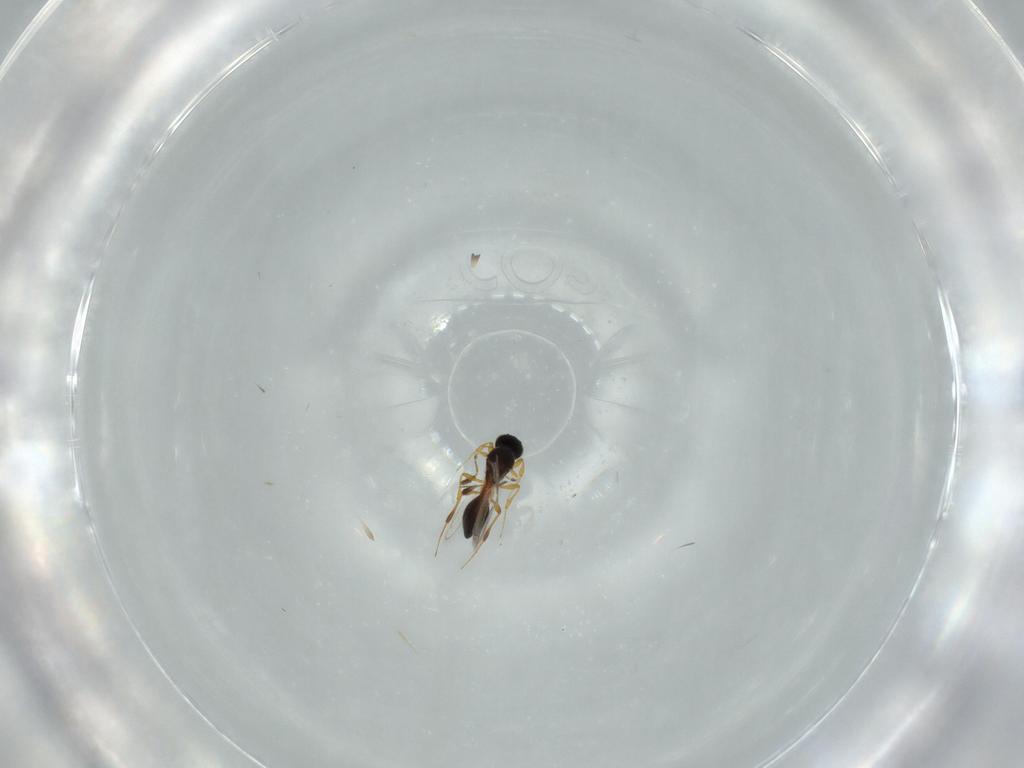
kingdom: Animalia
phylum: Arthropoda
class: Insecta
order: Hymenoptera
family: Platygastridae
